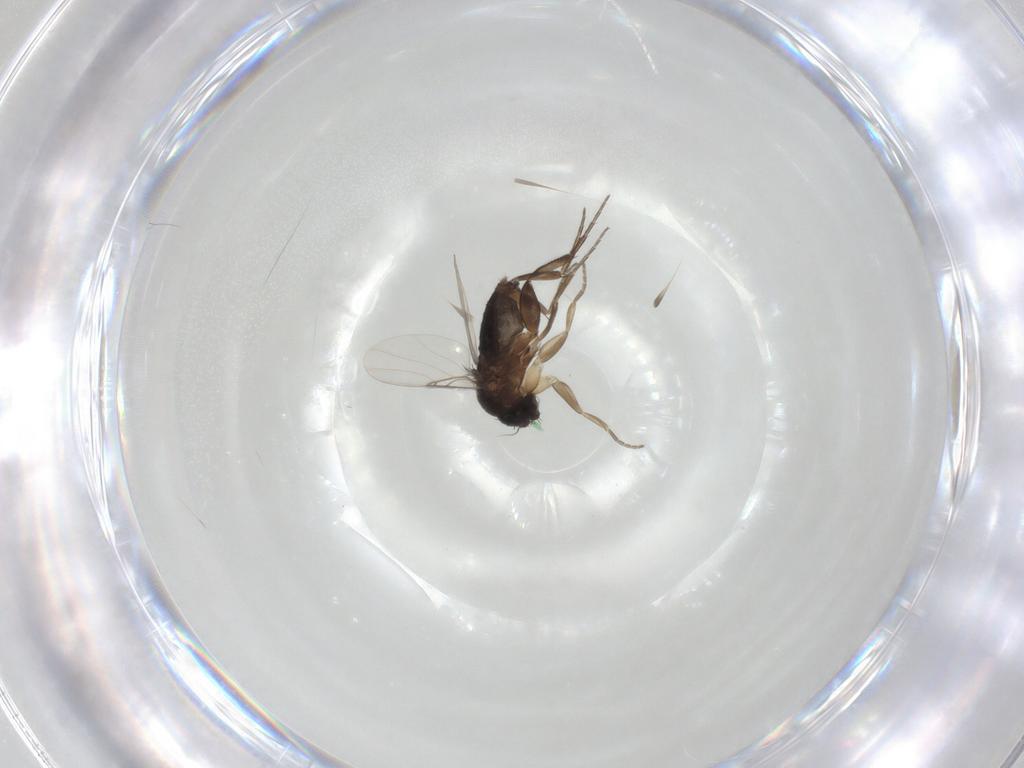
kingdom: Animalia
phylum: Arthropoda
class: Insecta
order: Diptera
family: Phoridae
